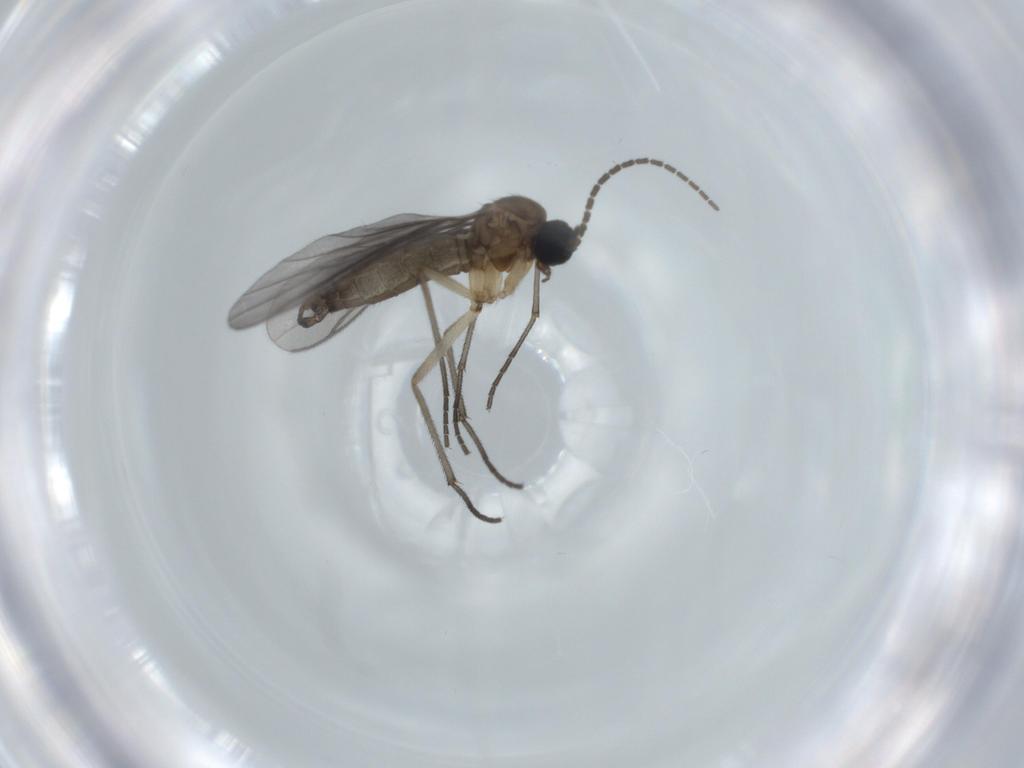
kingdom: Animalia
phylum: Arthropoda
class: Insecta
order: Diptera
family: Sciaridae
